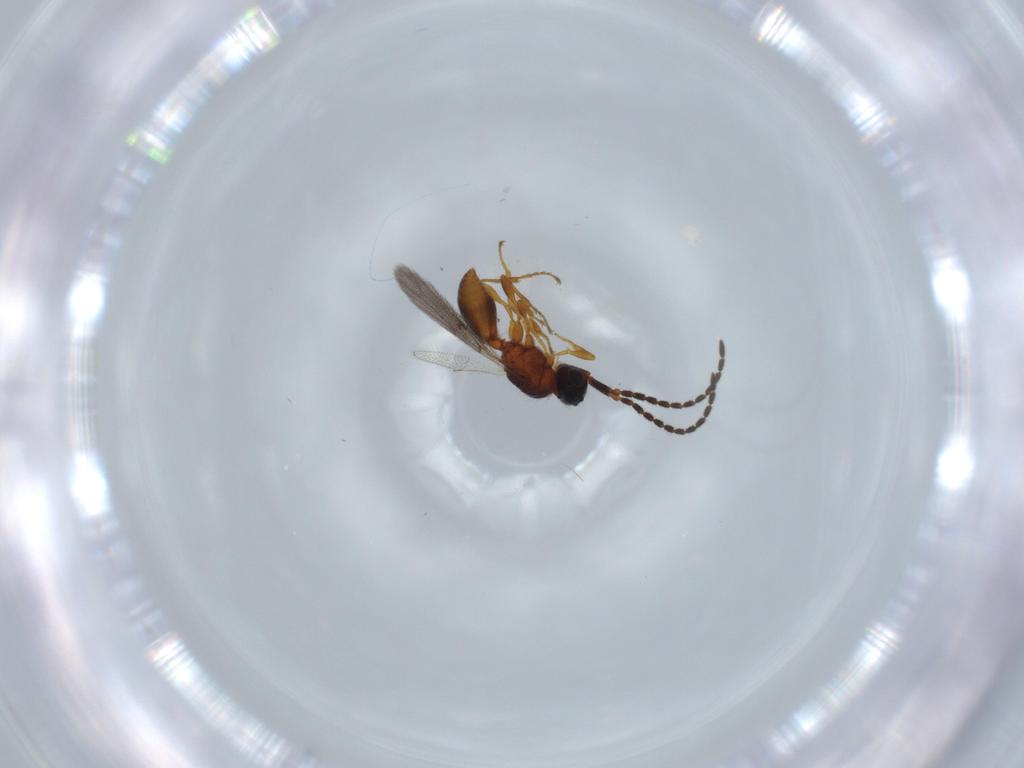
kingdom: Animalia
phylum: Arthropoda
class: Insecta
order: Hymenoptera
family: Diapriidae
